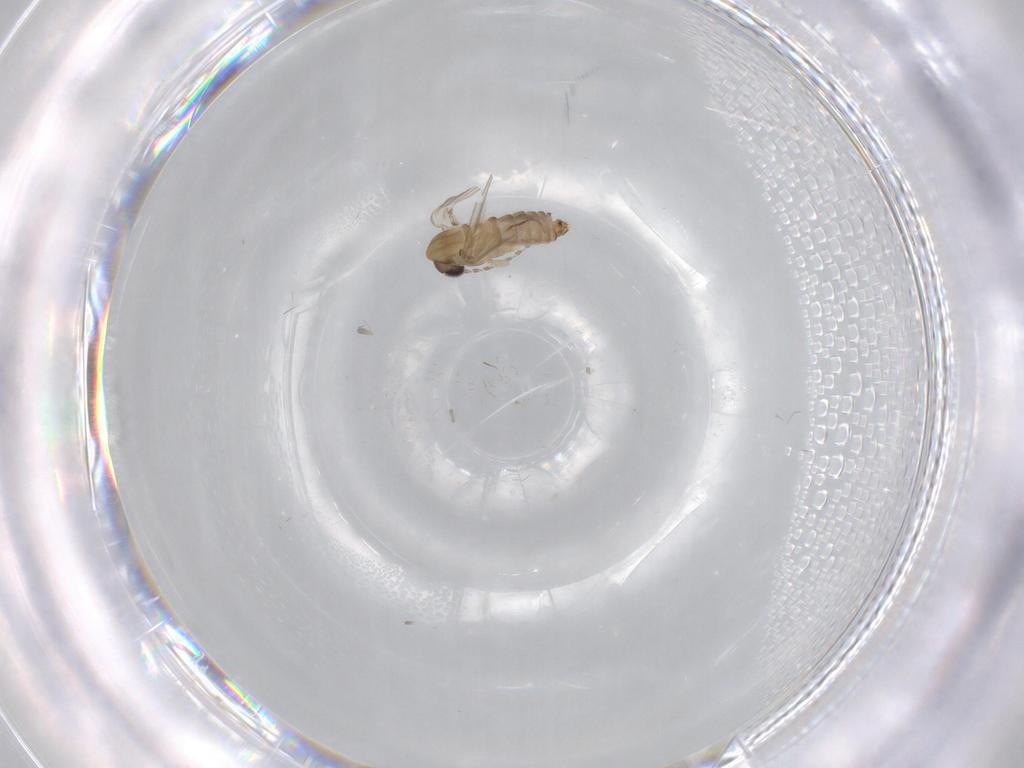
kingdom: Animalia
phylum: Arthropoda
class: Insecta
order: Diptera
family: Psychodidae
